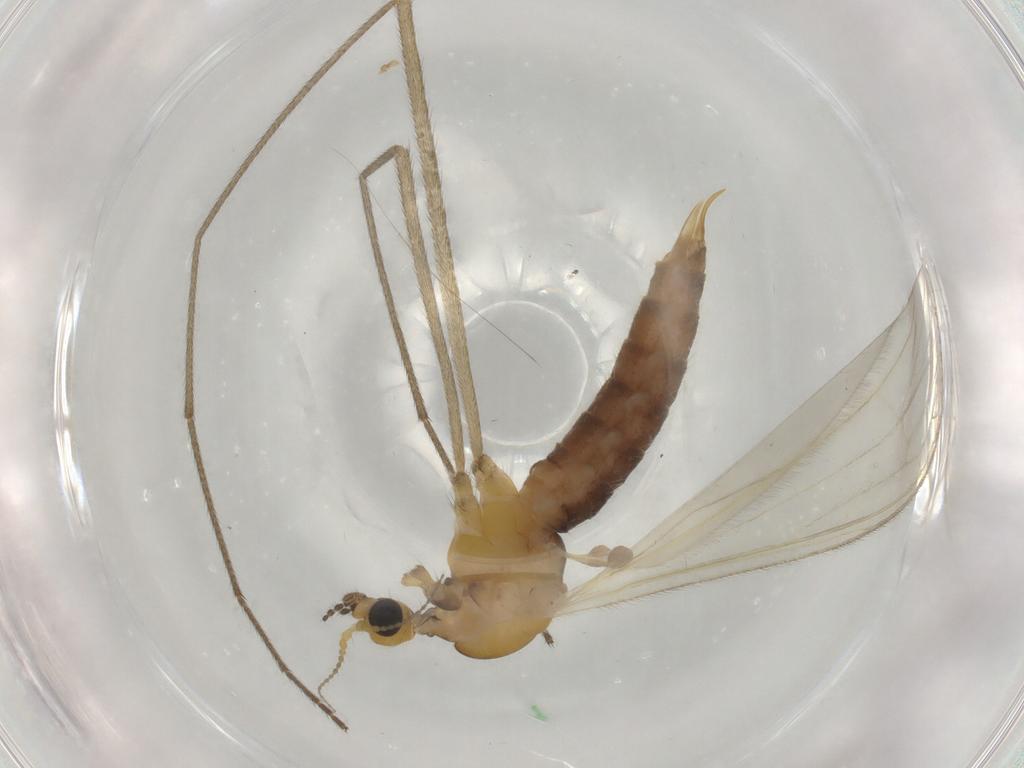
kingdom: Animalia
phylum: Arthropoda
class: Insecta
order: Diptera
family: Limoniidae
